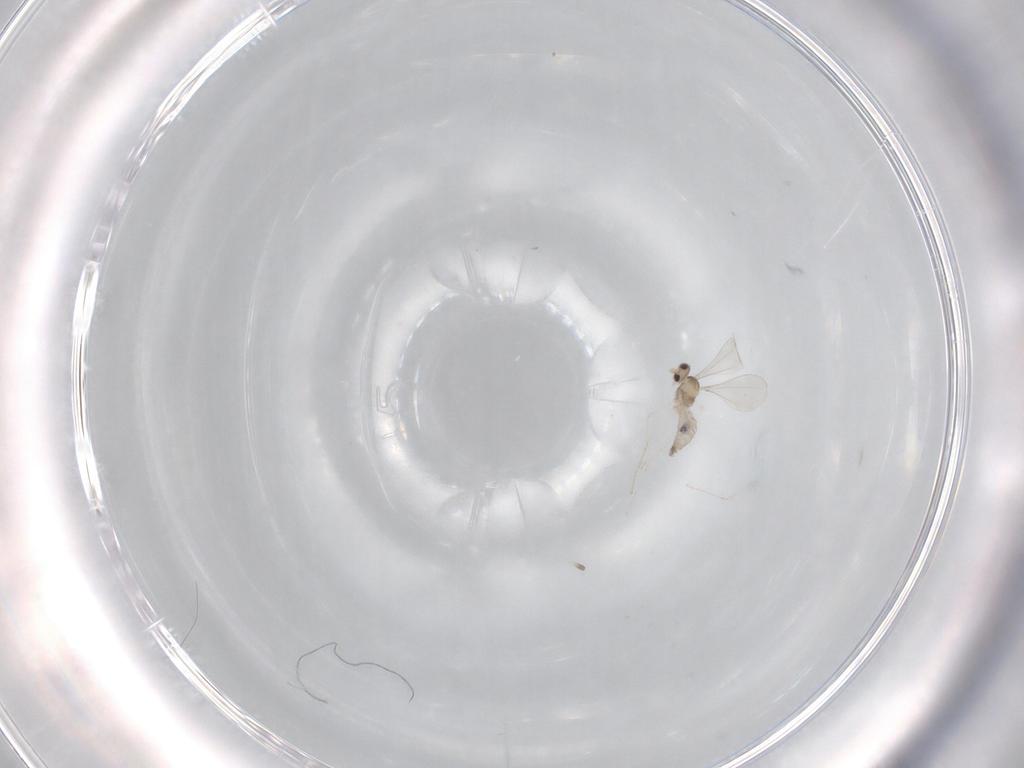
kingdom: Animalia
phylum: Arthropoda
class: Insecta
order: Diptera
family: Cecidomyiidae
